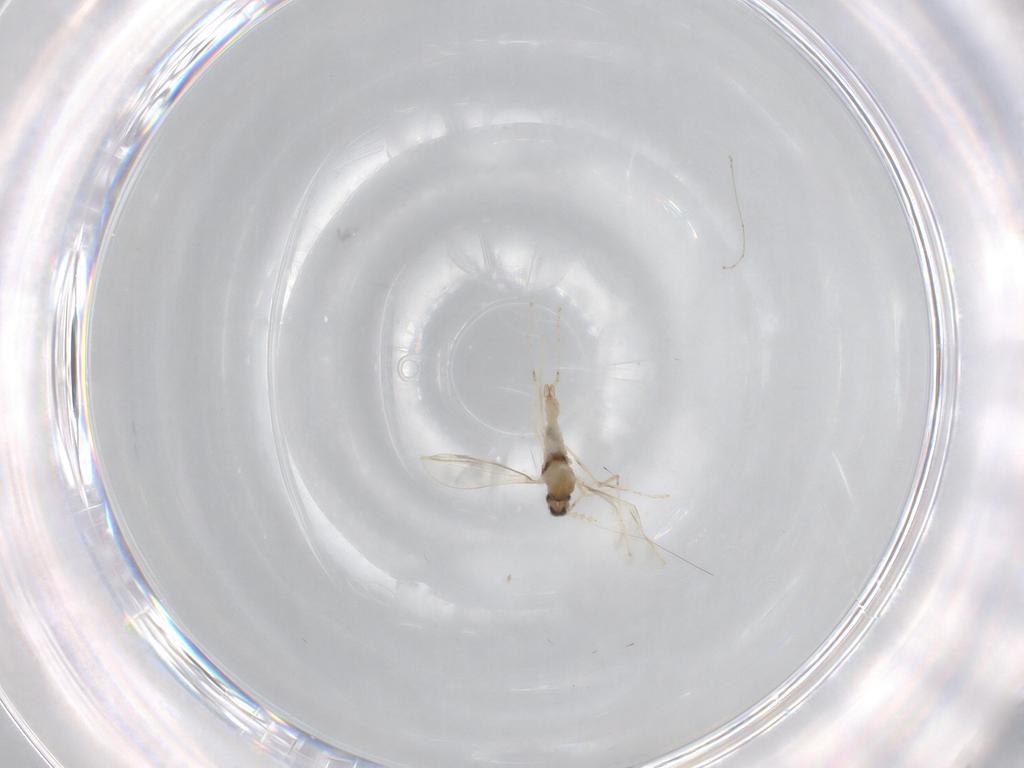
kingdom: Animalia
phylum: Arthropoda
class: Insecta
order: Diptera
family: Cecidomyiidae
